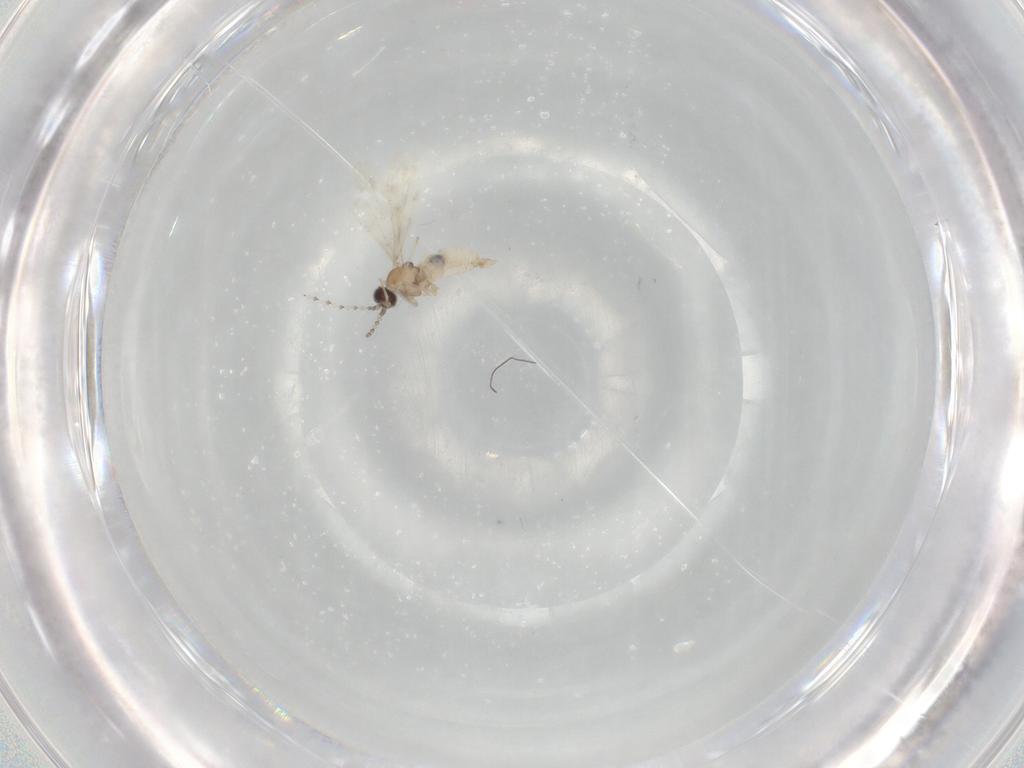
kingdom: Animalia
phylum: Arthropoda
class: Insecta
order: Diptera
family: Cecidomyiidae
